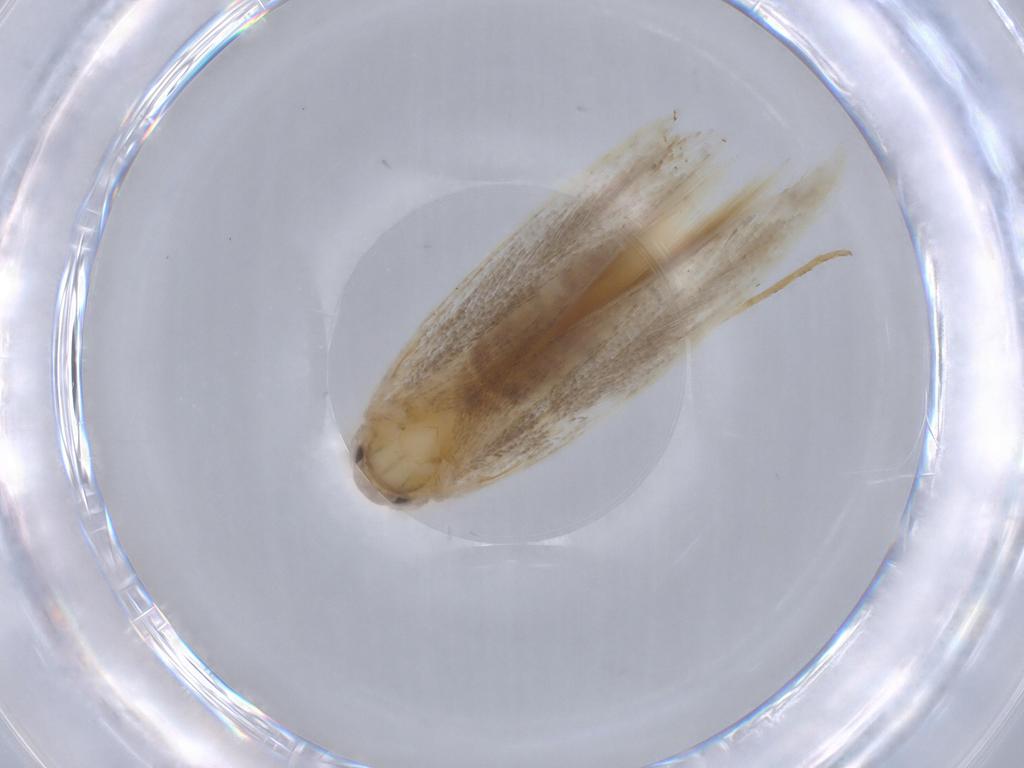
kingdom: Animalia
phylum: Arthropoda
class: Insecta
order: Lepidoptera
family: Cosmopterigidae
